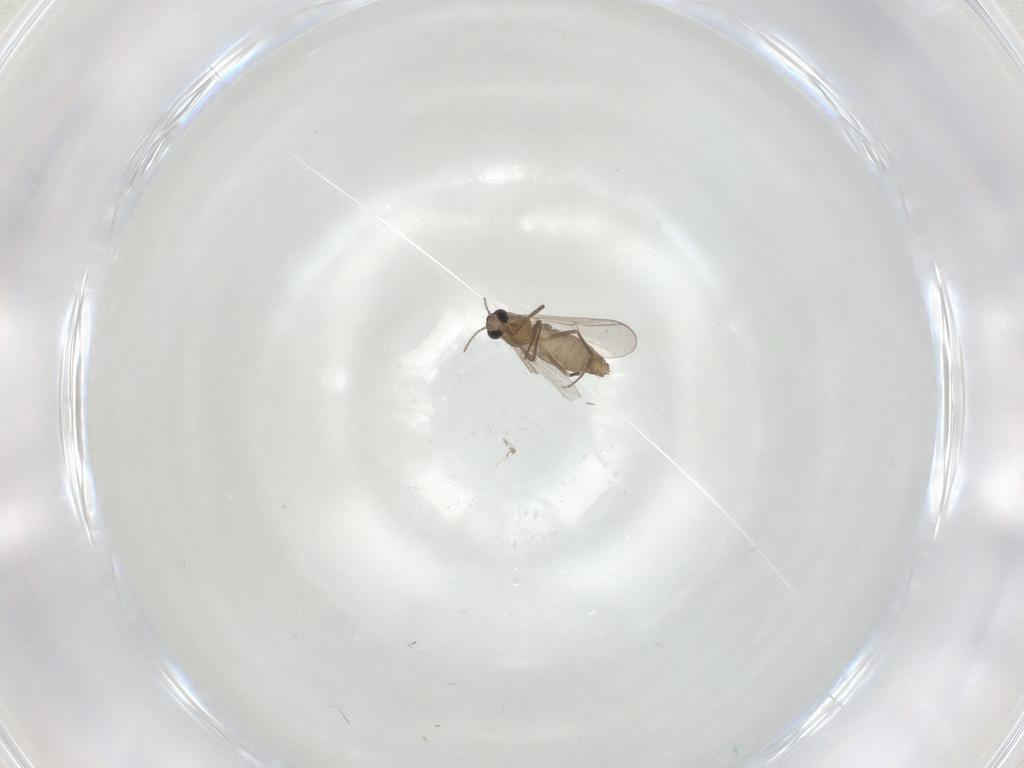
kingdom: Animalia
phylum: Arthropoda
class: Insecta
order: Diptera
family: Chironomidae
